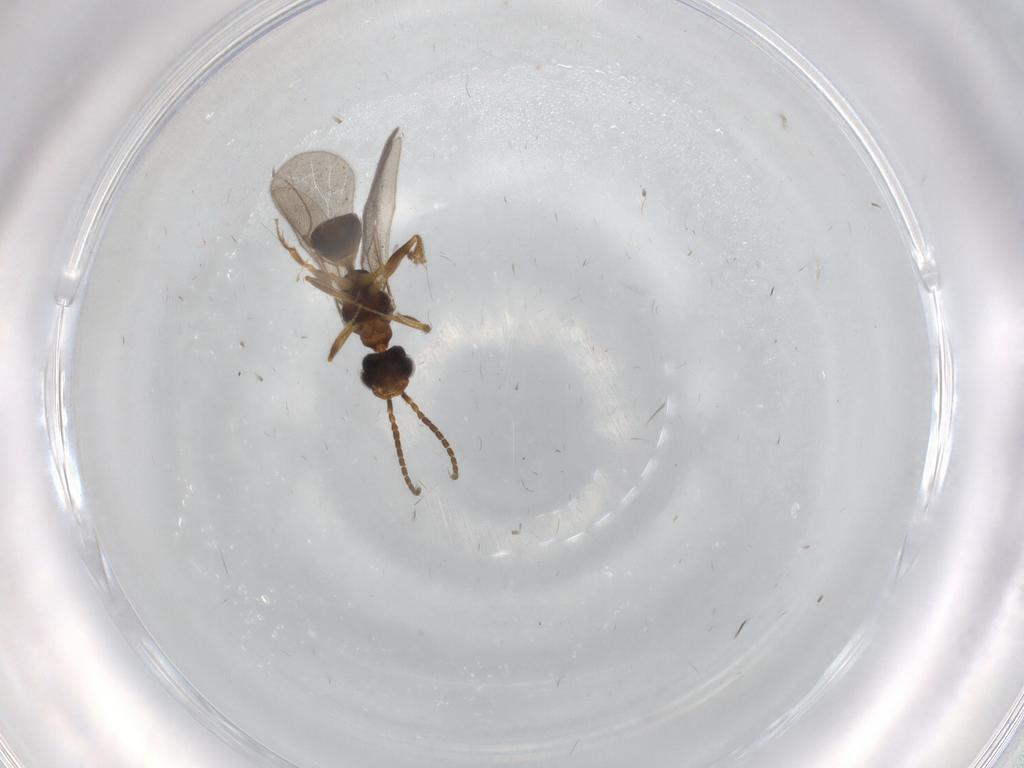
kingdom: Animalia
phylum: Arthropoda
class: Insecta
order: Hymenoptera
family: Bethylidae
